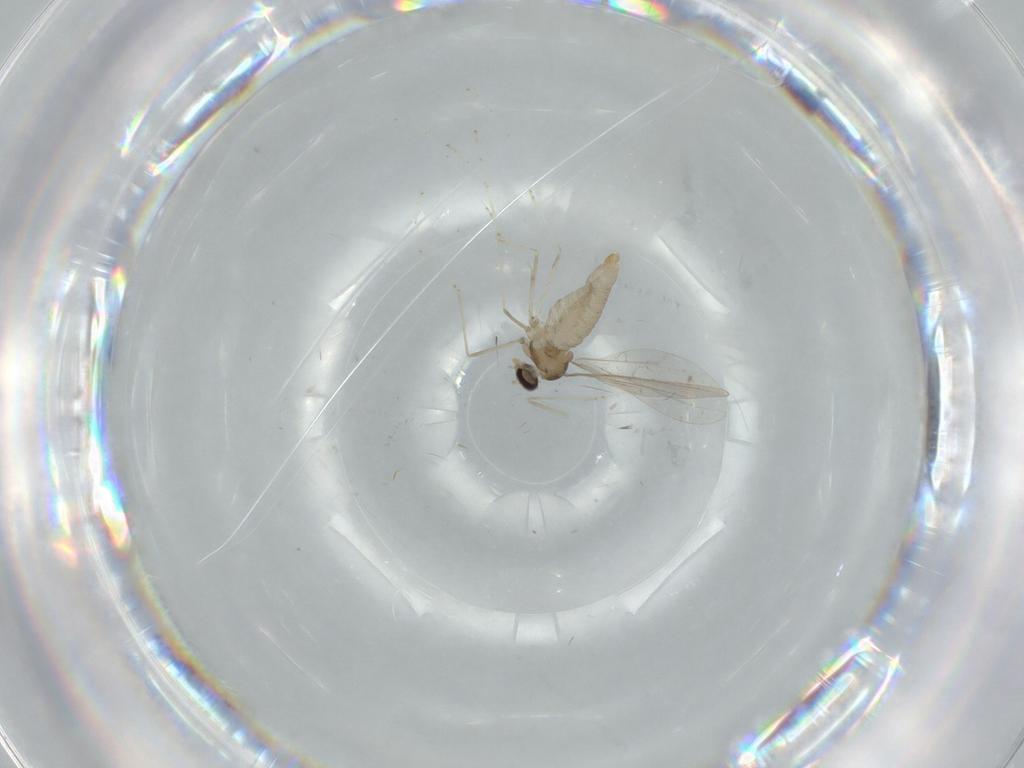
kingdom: Animalia
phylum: Arthropoda
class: Insecta
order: Diptera
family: Cecidomyiidae
